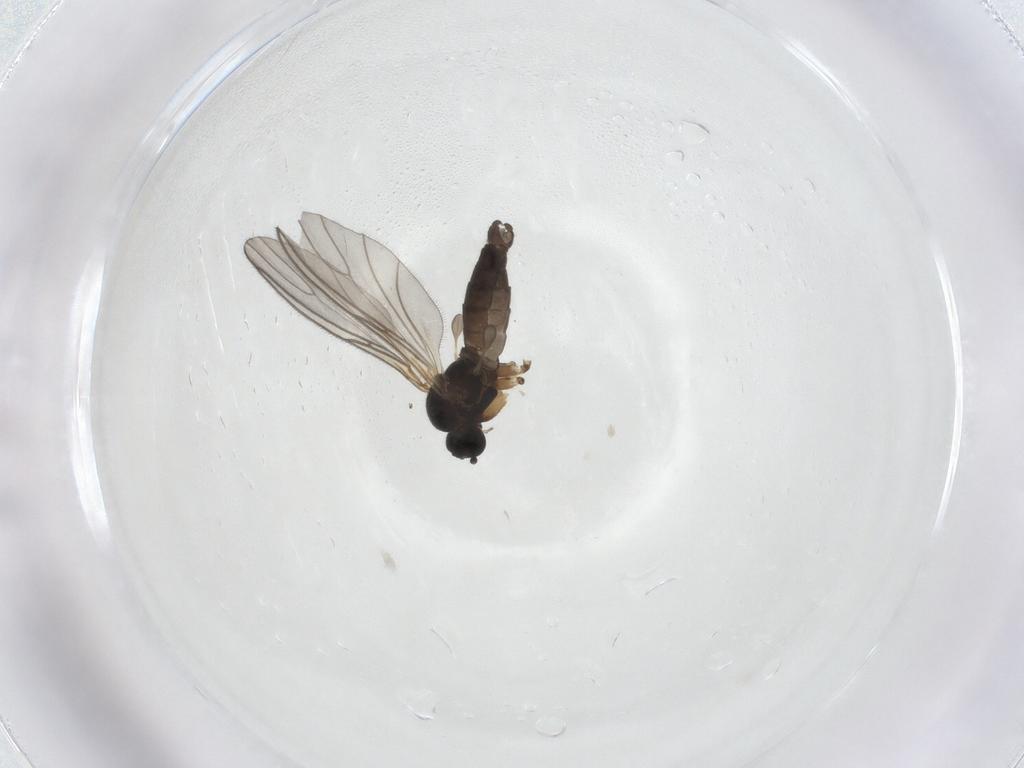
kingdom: Animalia
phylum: Arthropoda
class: Insecta
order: Diptera
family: Sciaridae
